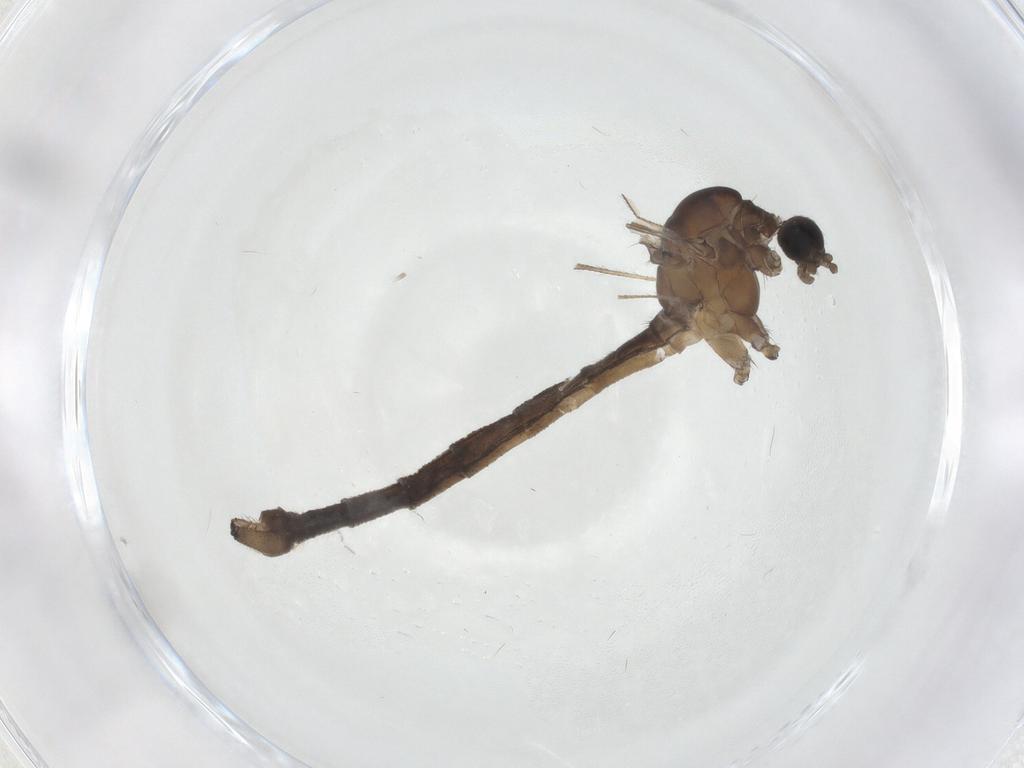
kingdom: Animalia
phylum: Arthropoda
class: Insecta
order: Diptera
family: Limoniidae
